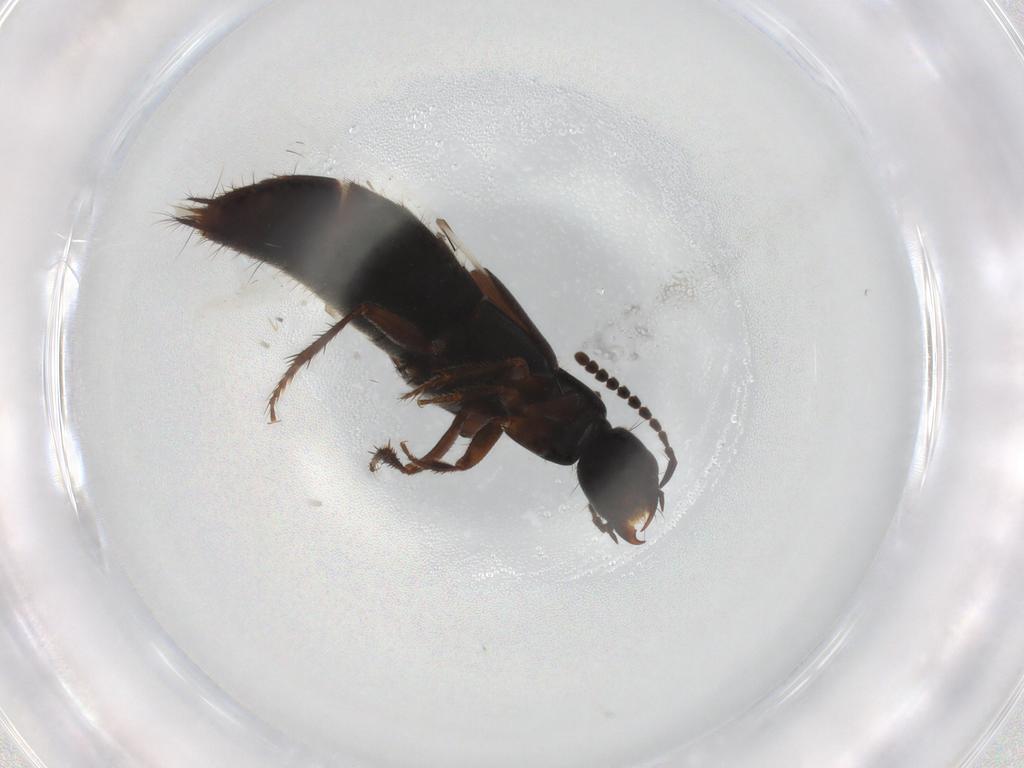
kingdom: Animalia
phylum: Arthropoda
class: Insecta
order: Coleoptera
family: Staphylinidae
